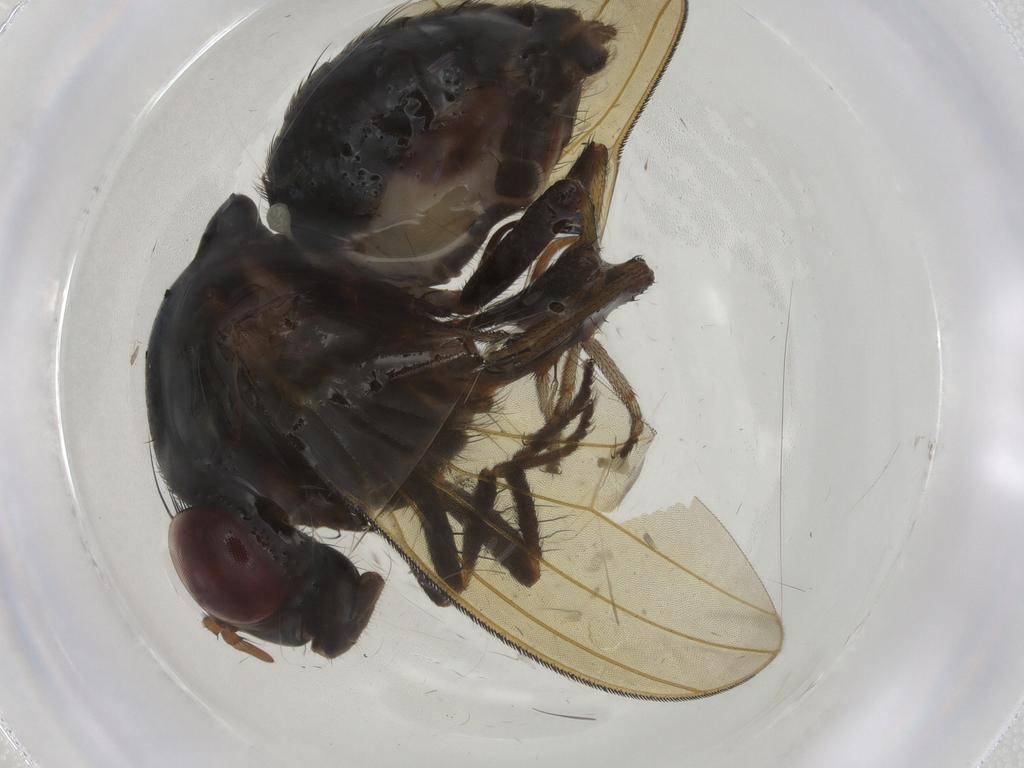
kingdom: Animalia
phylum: Arthropoda
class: Insecta
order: Diptera
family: Lauxaniidae
